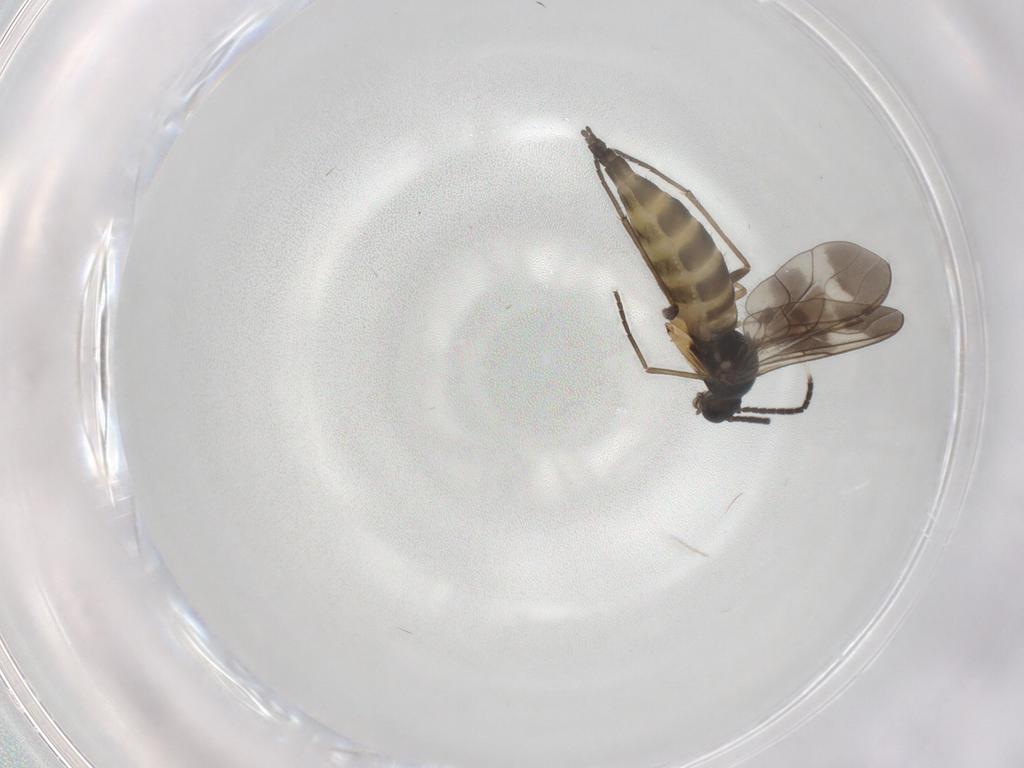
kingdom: Animalia
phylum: Arthropoda
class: Insecta
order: Diptera
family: Sciaridae
